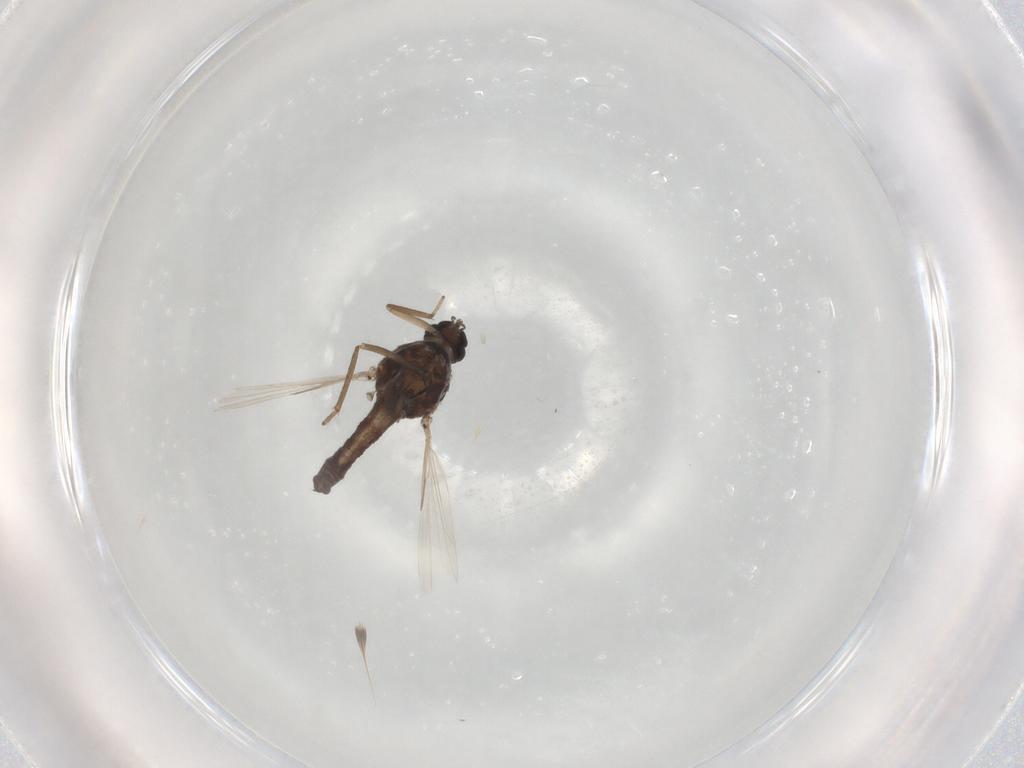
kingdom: Animalia
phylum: Arthropoda
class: Insecta
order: Diptera
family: Ceratopogonidae
